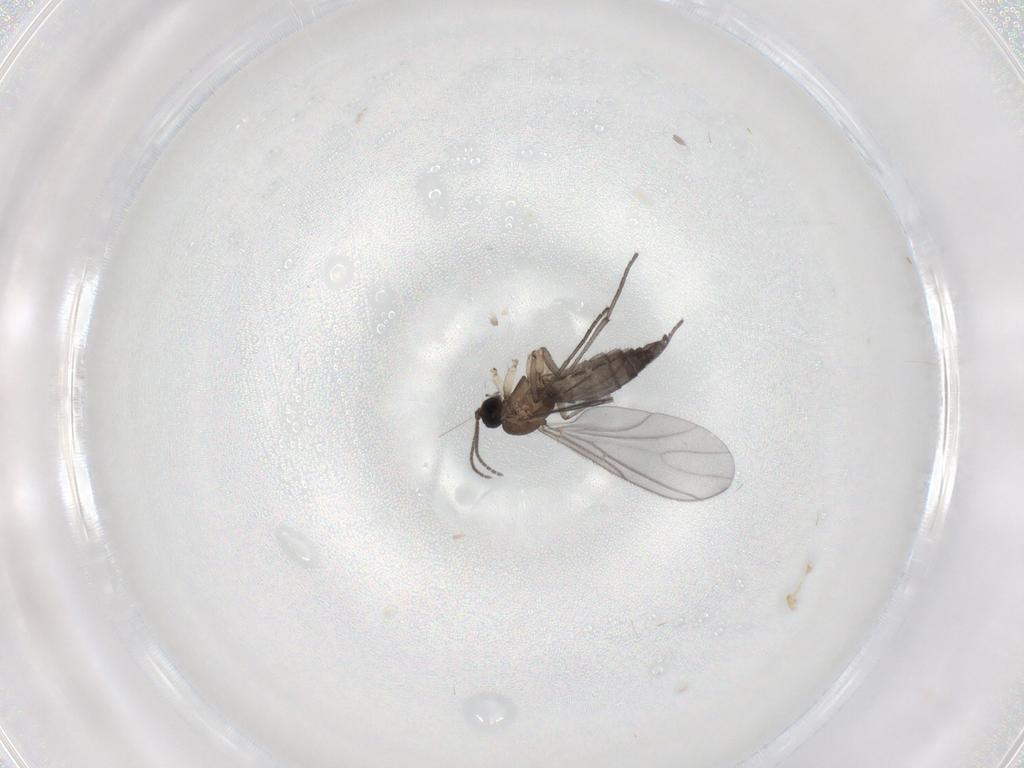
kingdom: Animalia
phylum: Arthropoda
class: Insecta
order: Diptera
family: Sciaridae
